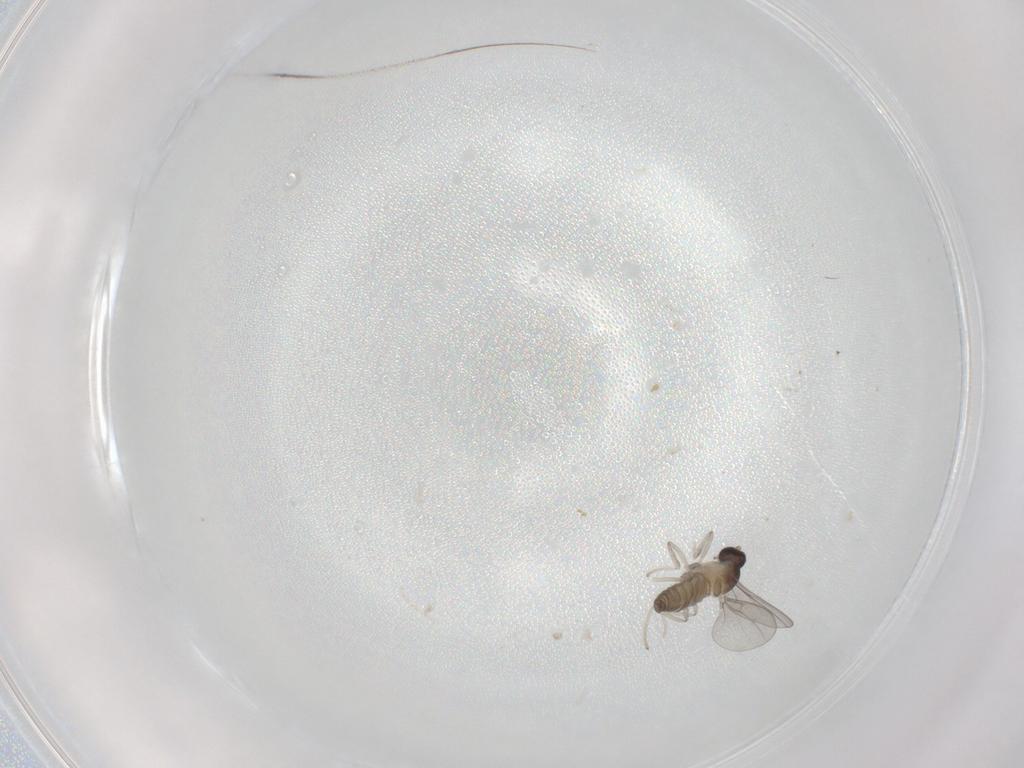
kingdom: Animalia
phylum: Arthropoda
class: Insecta
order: Diptera
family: Cecidomyiidae
